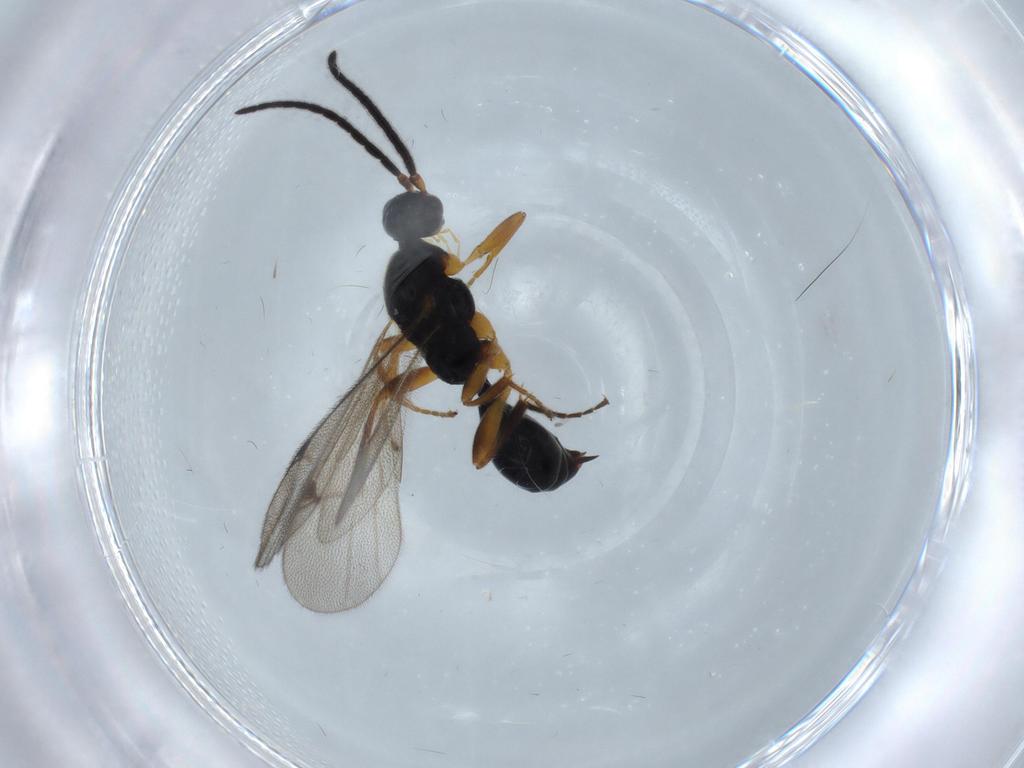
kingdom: Animalia
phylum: Arthropoda
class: Insecta
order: Hymenoptera
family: Proctotrupidae
